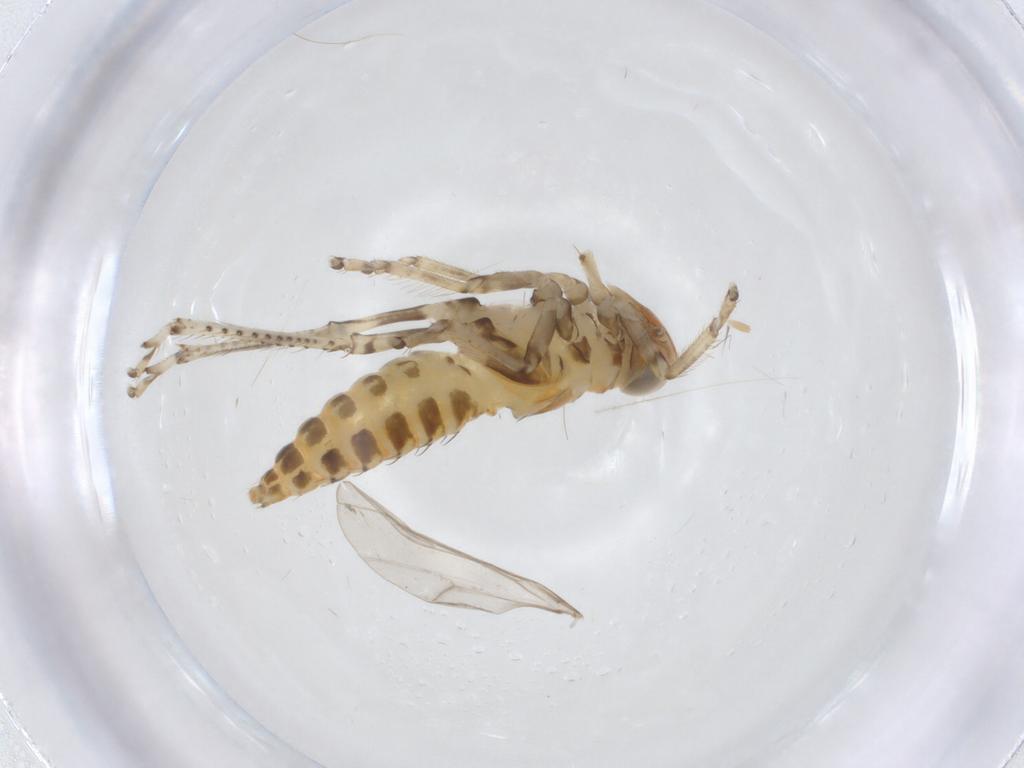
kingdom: Animalia
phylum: Arthropoda
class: Insecta
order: Hemiptera
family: Cicadellidae
